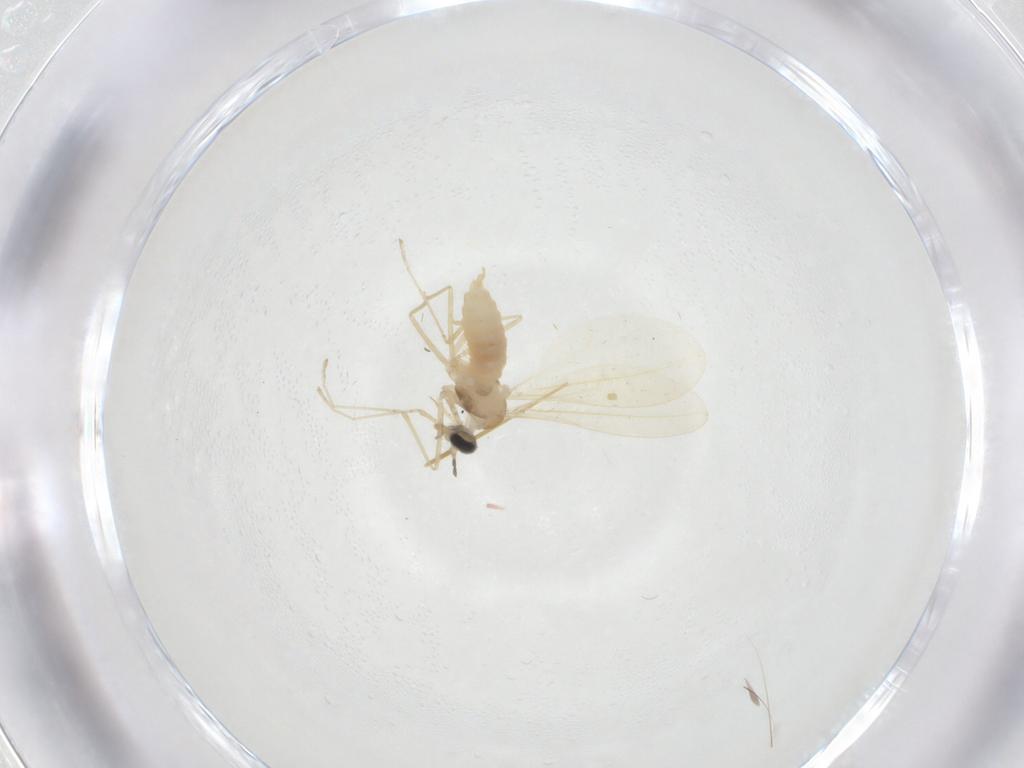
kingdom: Animalia
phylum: Arthropoda
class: Insecta
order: Diptera
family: Cecidomyiidae
